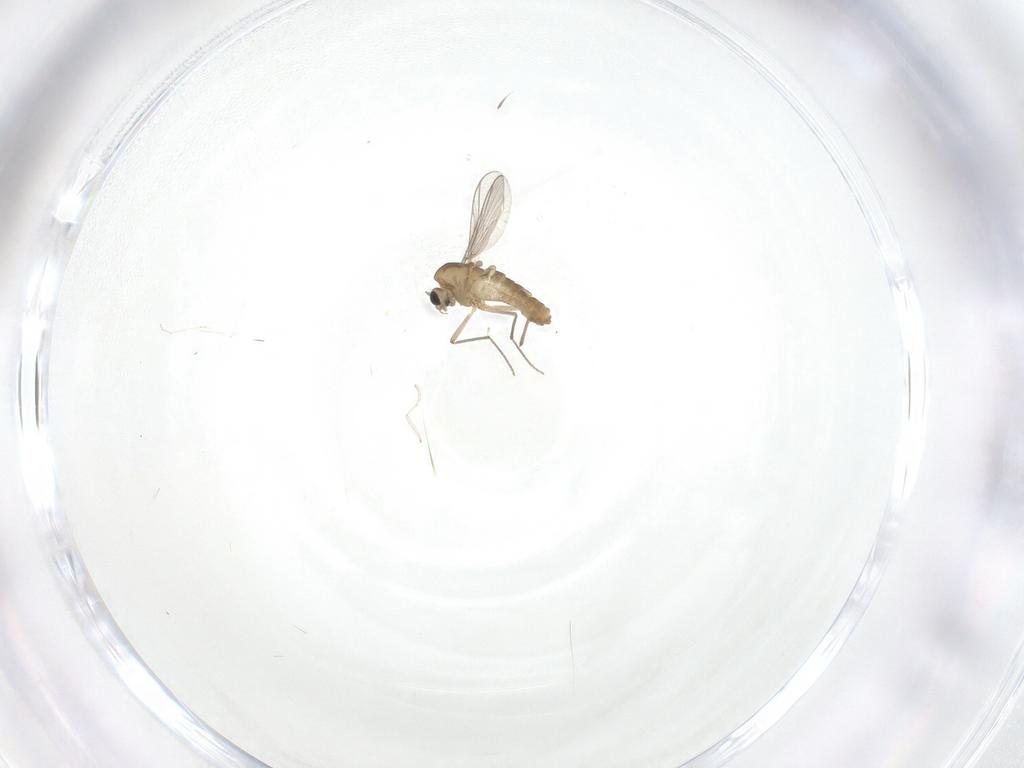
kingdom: Animalia
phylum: Arthropoda
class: Insecta
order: Diptera
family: Chironomidae
